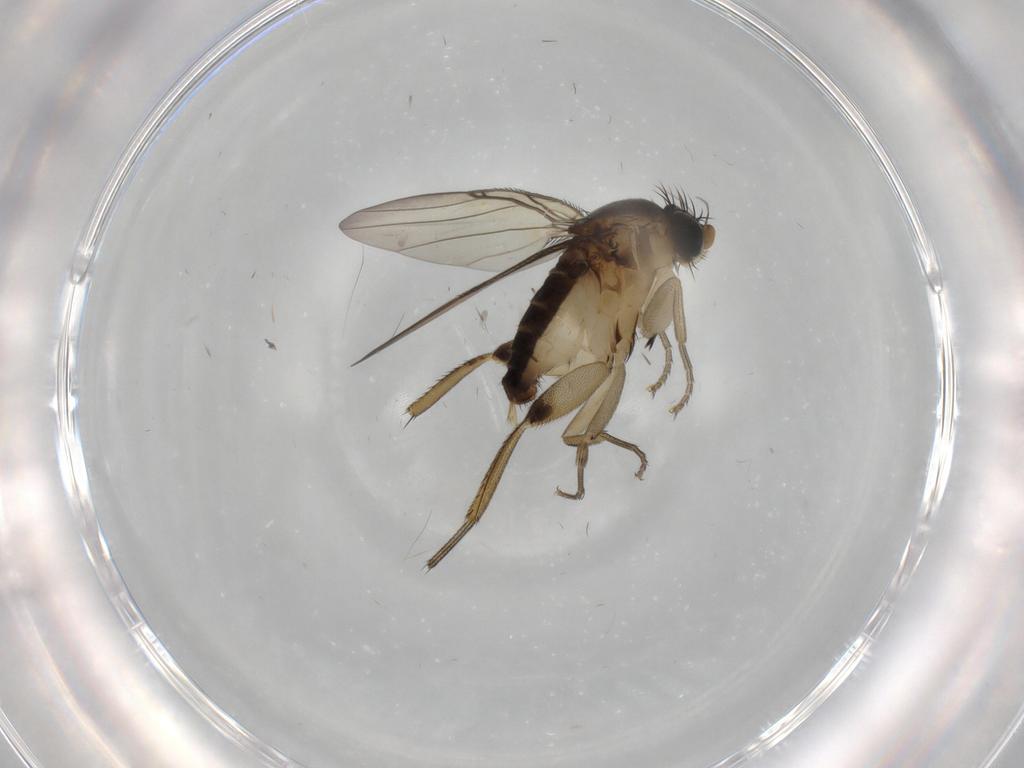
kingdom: Animalia
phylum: Arthropoda
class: Insecta
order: Diptera
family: Phoridae
